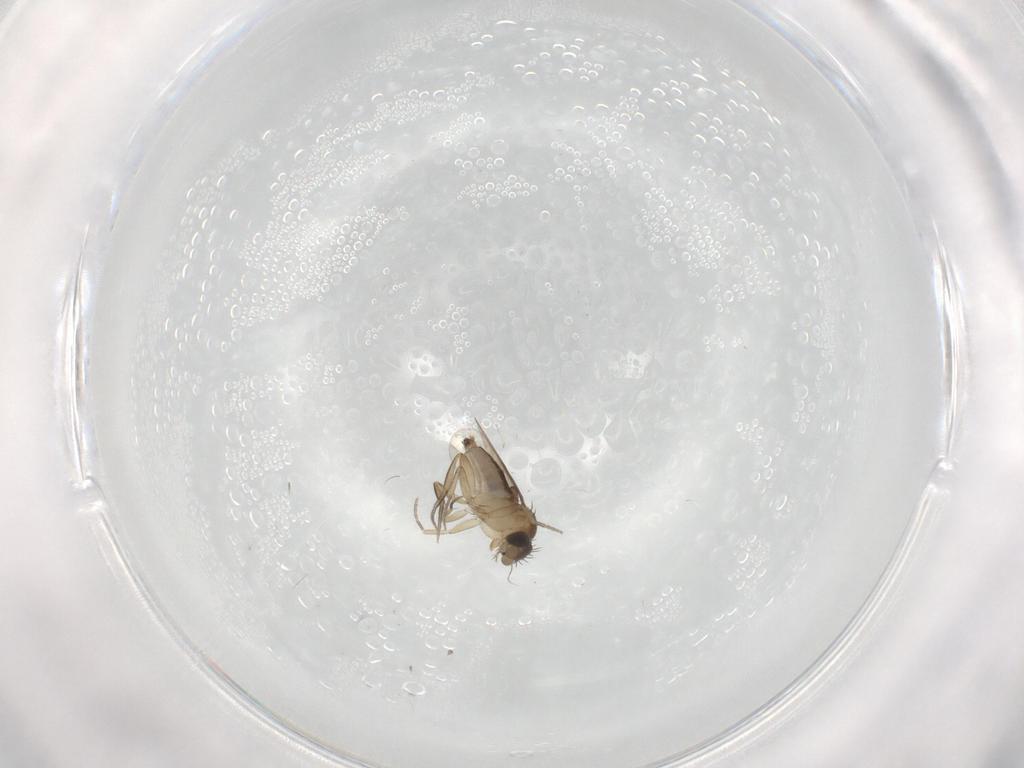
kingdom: Animalia
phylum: Arthropoda
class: Insecta
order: Diptera
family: Phoridae
